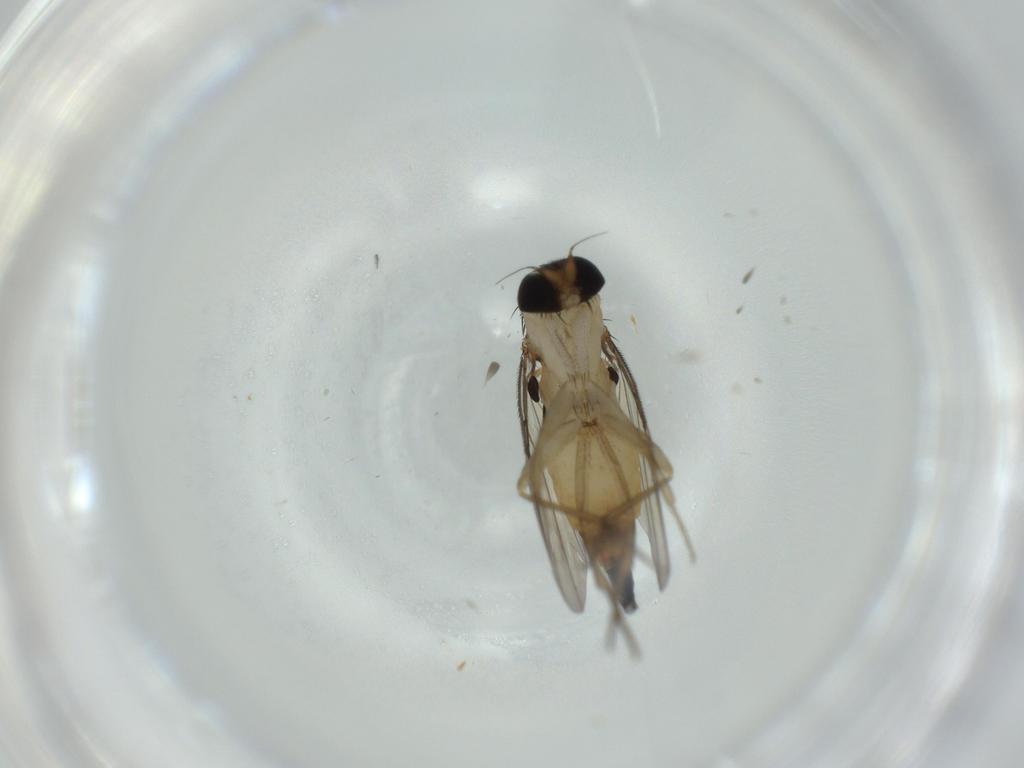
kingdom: Animalia
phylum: Arthropoda
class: Insecta
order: Diptera
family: Phoridae
